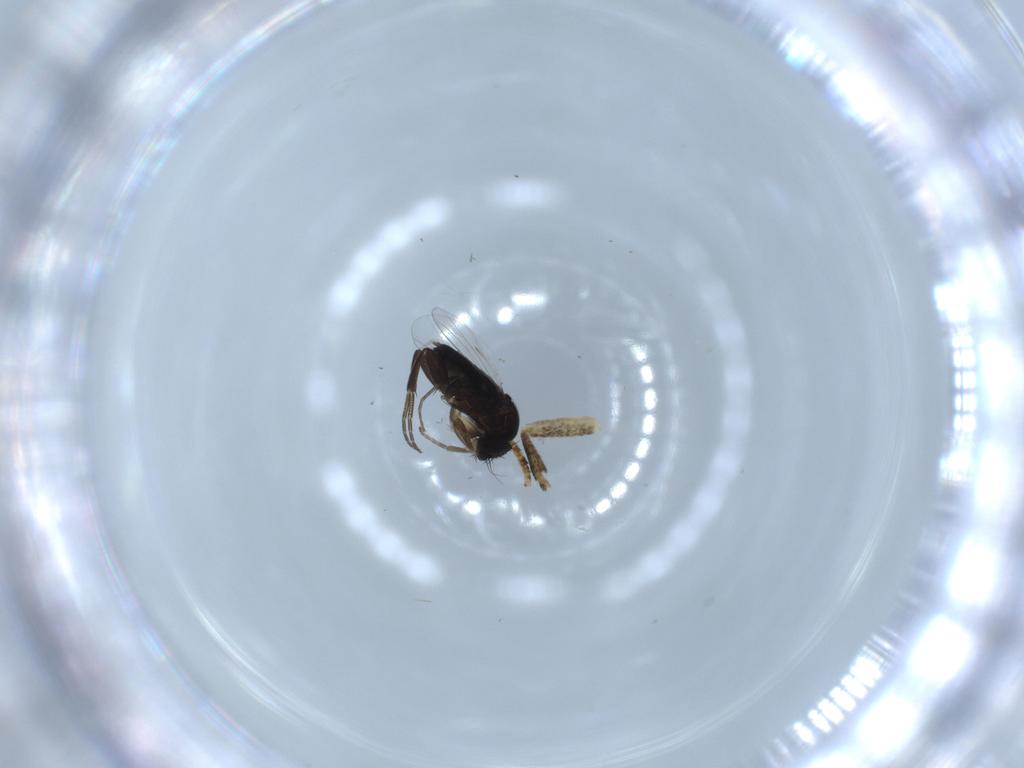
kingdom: Animalia
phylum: Arthropoda
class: Insecta
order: Diptera
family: Phoridae
